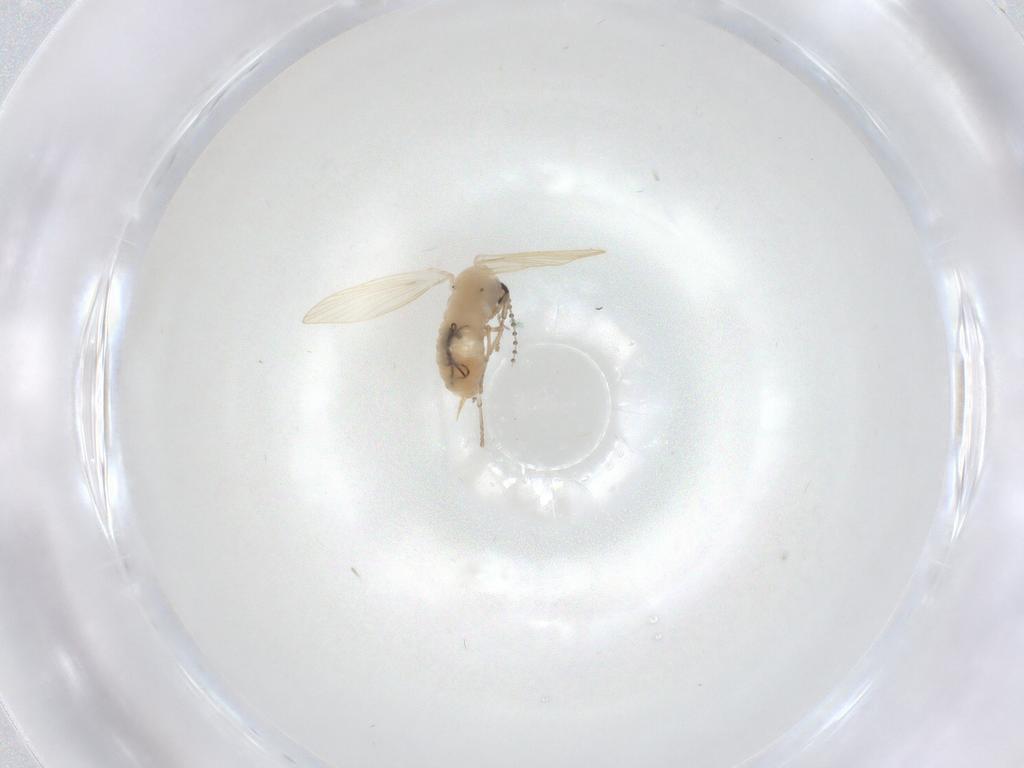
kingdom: Animalia
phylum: Arthropoda
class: Insecta
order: Diptera
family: Psychodidae
